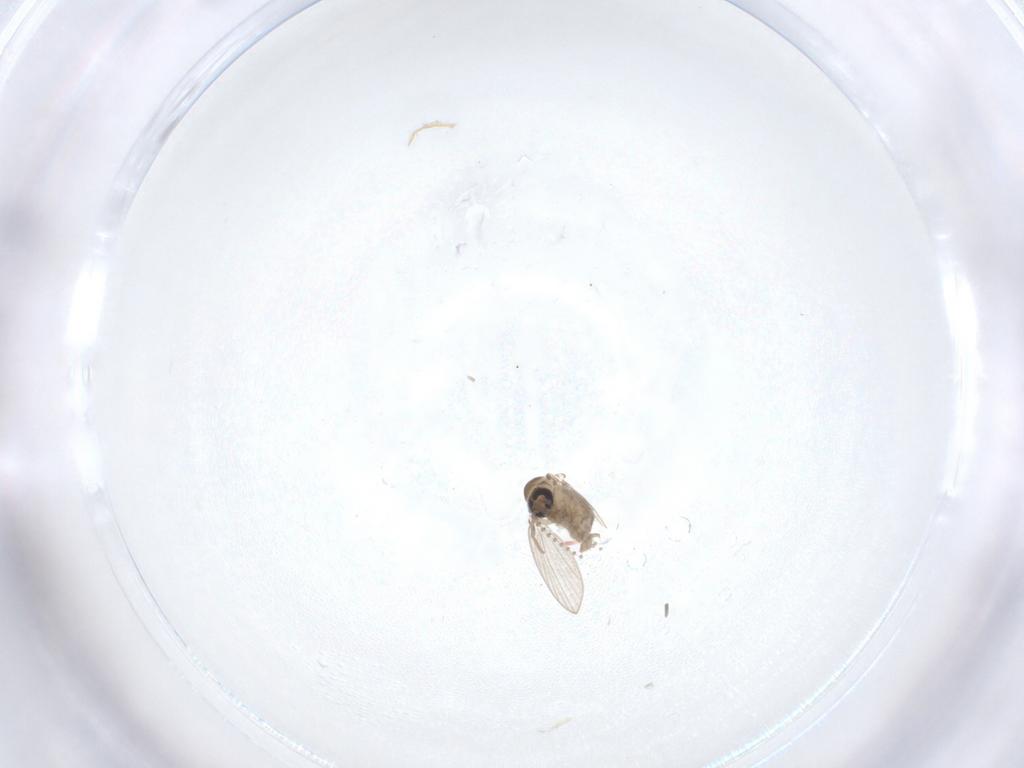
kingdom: Animalia
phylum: Arthropoda
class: Insecta
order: Diptera
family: Psychodidae
